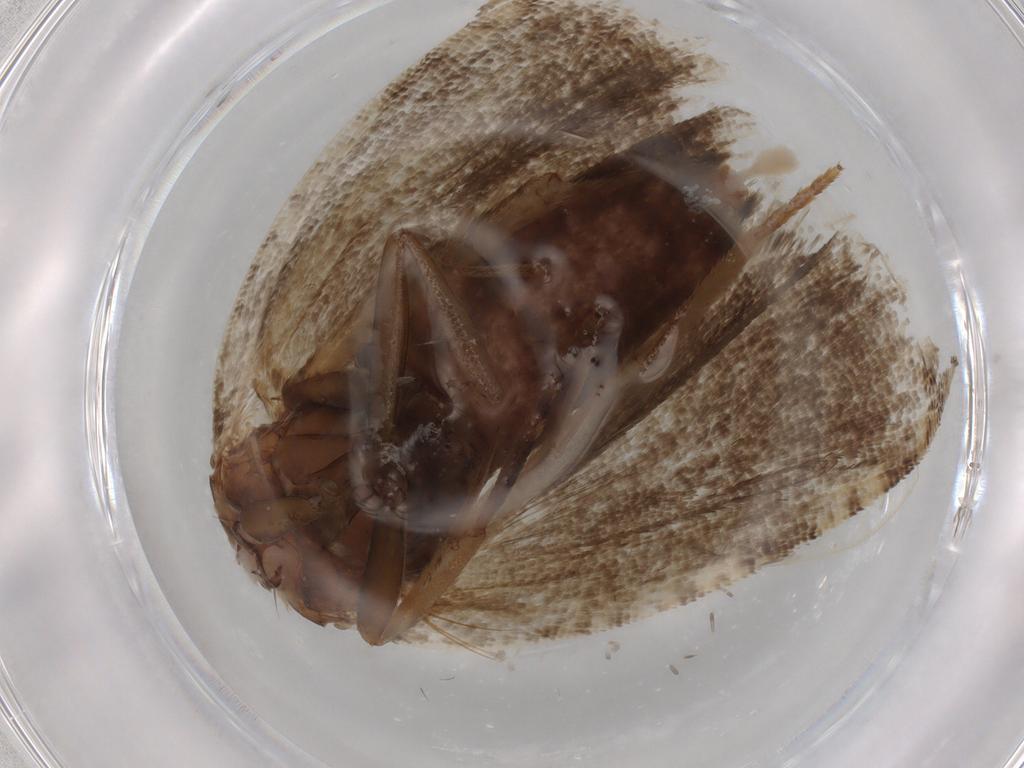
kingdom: Animalia
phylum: Arthropoda
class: Insecta
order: Lepidoptera
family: Tortricidae
